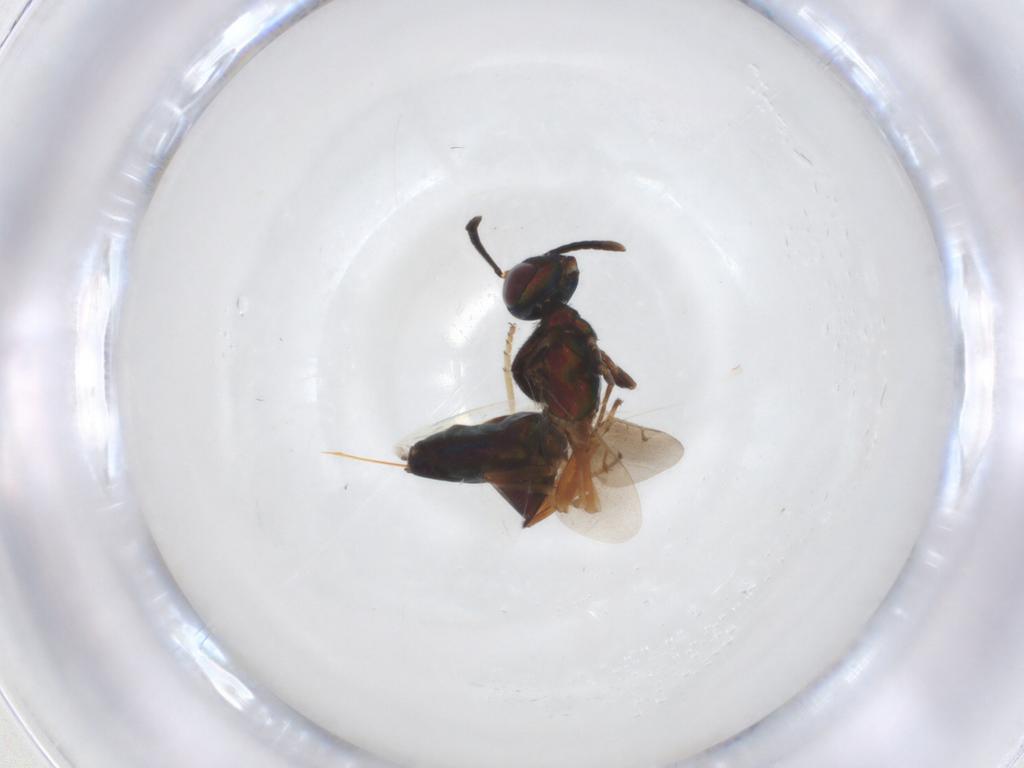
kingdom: Animalia
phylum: Arthropoda
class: Insecta
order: Hymenoptera
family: Eupelmidae
